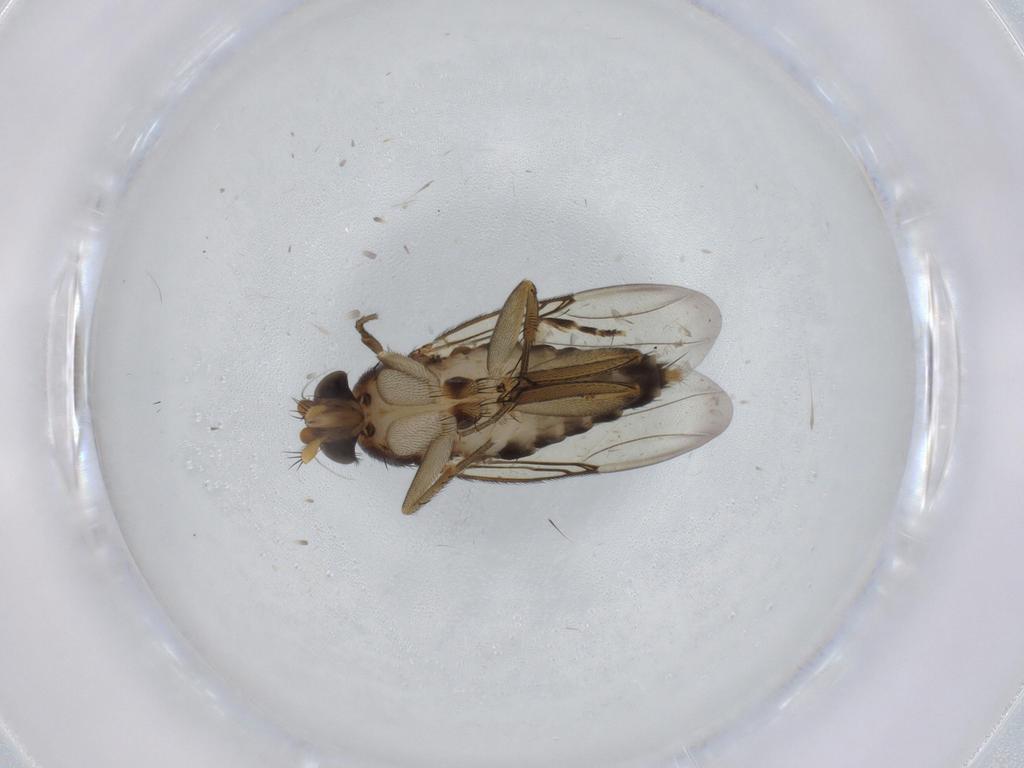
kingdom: Animalia
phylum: Arthropoda
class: Insecta
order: Diptera
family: Phoridae
